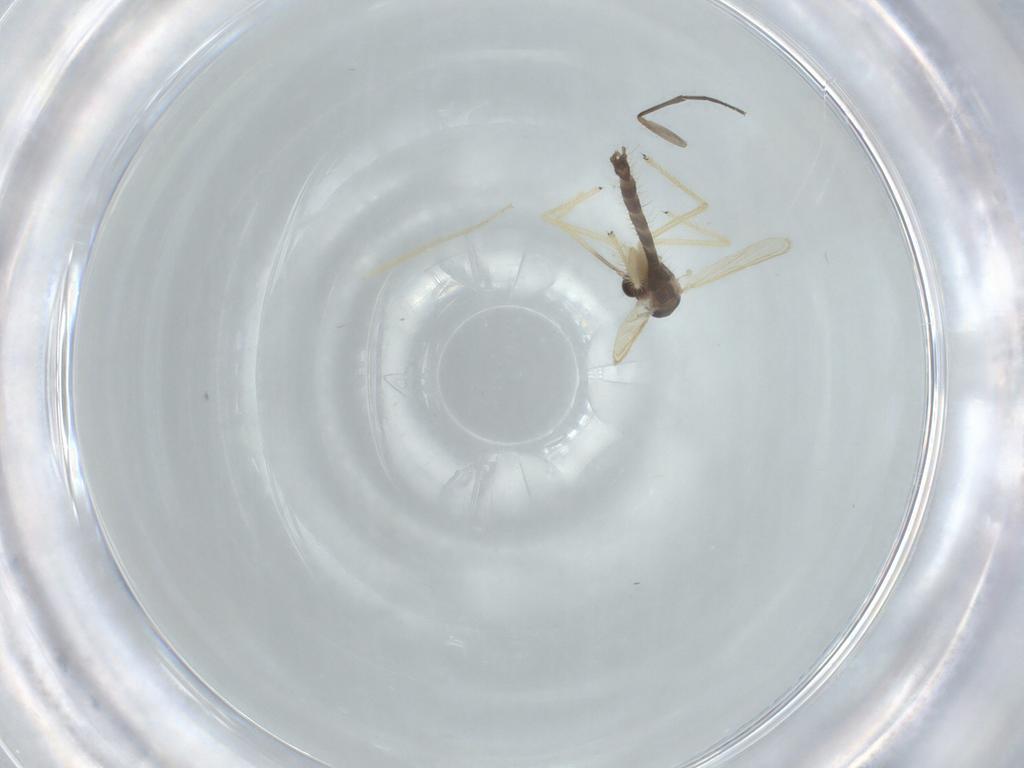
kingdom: Animalia
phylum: Arthropoda
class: Insecta
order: Diptera
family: Chironomidae
